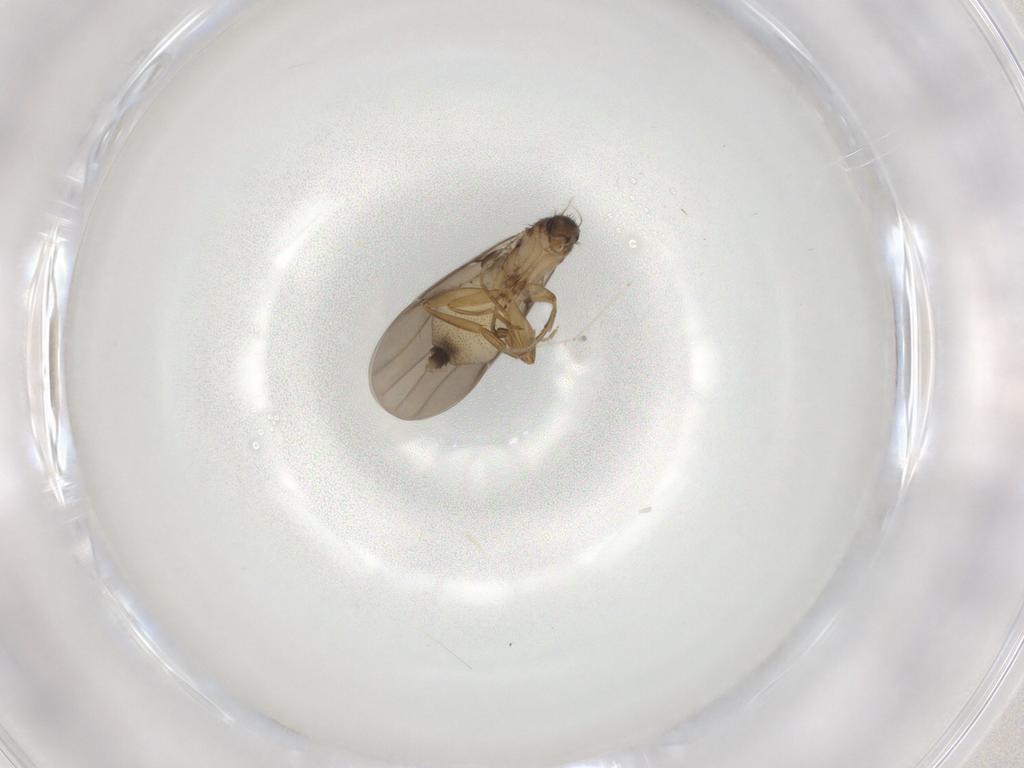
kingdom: Animalia
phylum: Arthropoda
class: Insecta
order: Diptera
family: Phoridae
